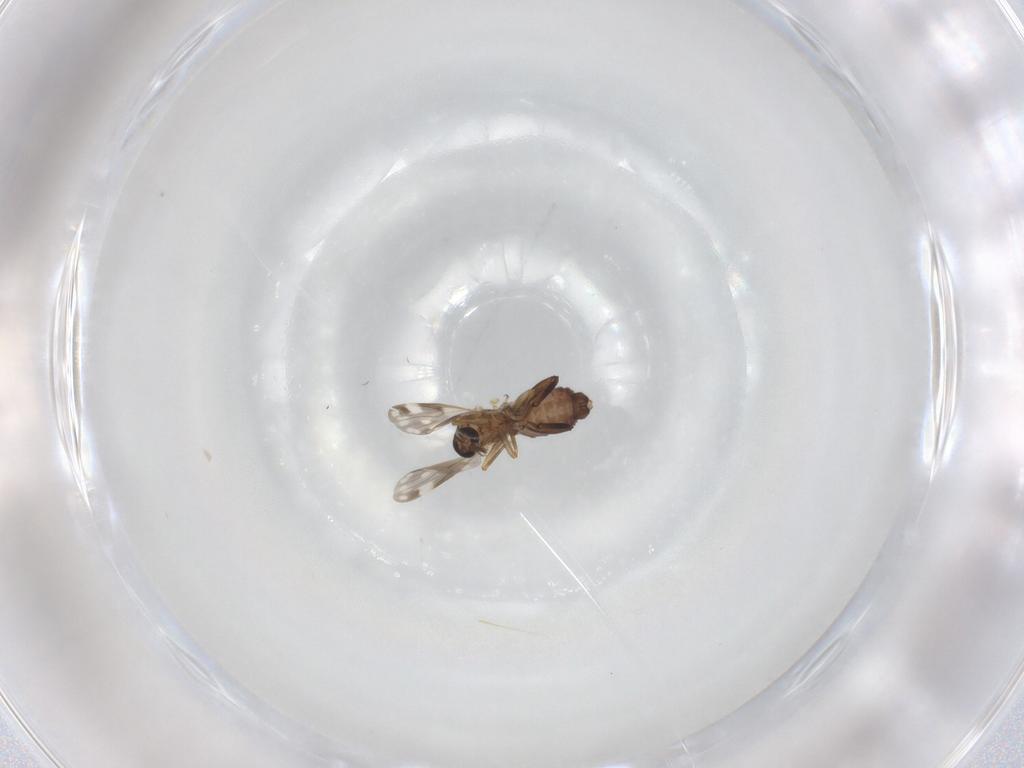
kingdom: Animalia
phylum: Arthropoda
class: Insecta
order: Diptera
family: Ceratopogonidae
